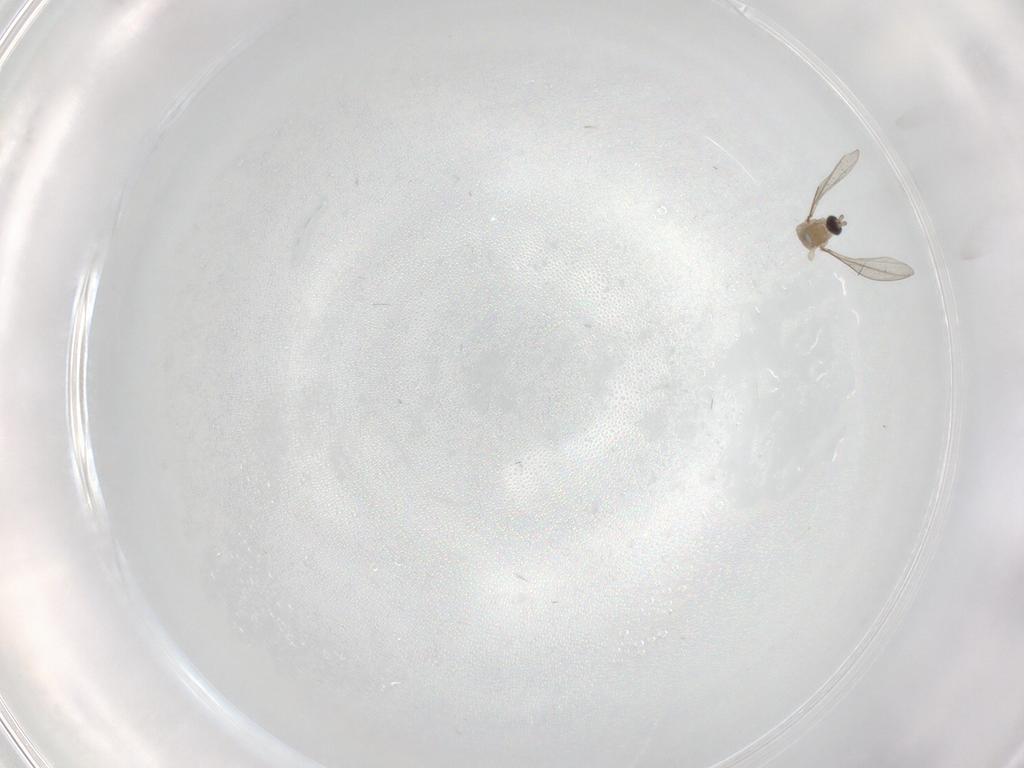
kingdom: Animalia
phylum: Arthropoda
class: Insecta
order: Diptera
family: Cecidomyiidae
